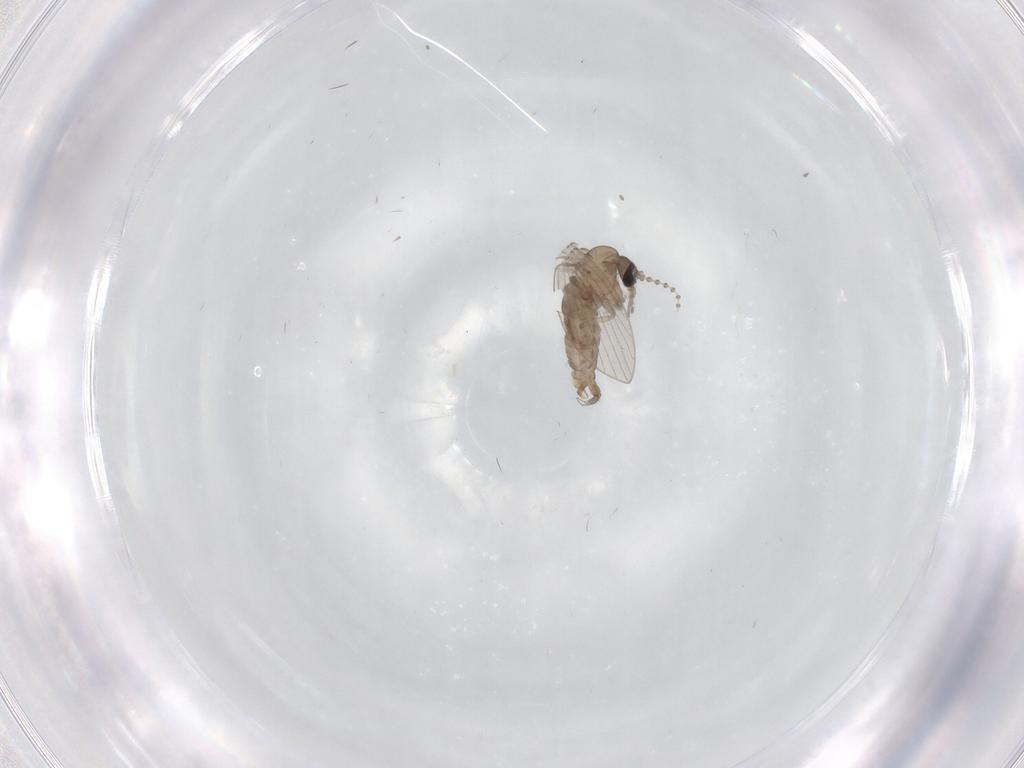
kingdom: Animalia
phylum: Arthropoda
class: Insecta
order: Diptera
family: Psychodidae
